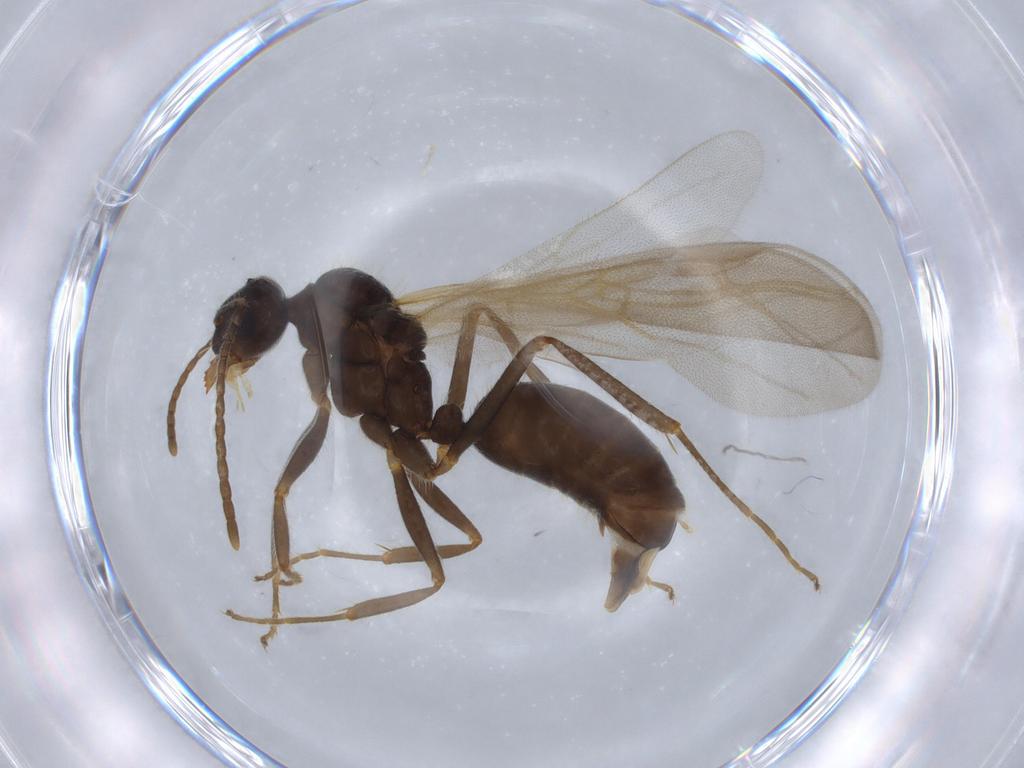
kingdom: Animalia
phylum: Arthropoda
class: Insecta
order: Hymenoptera
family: Formicidae
